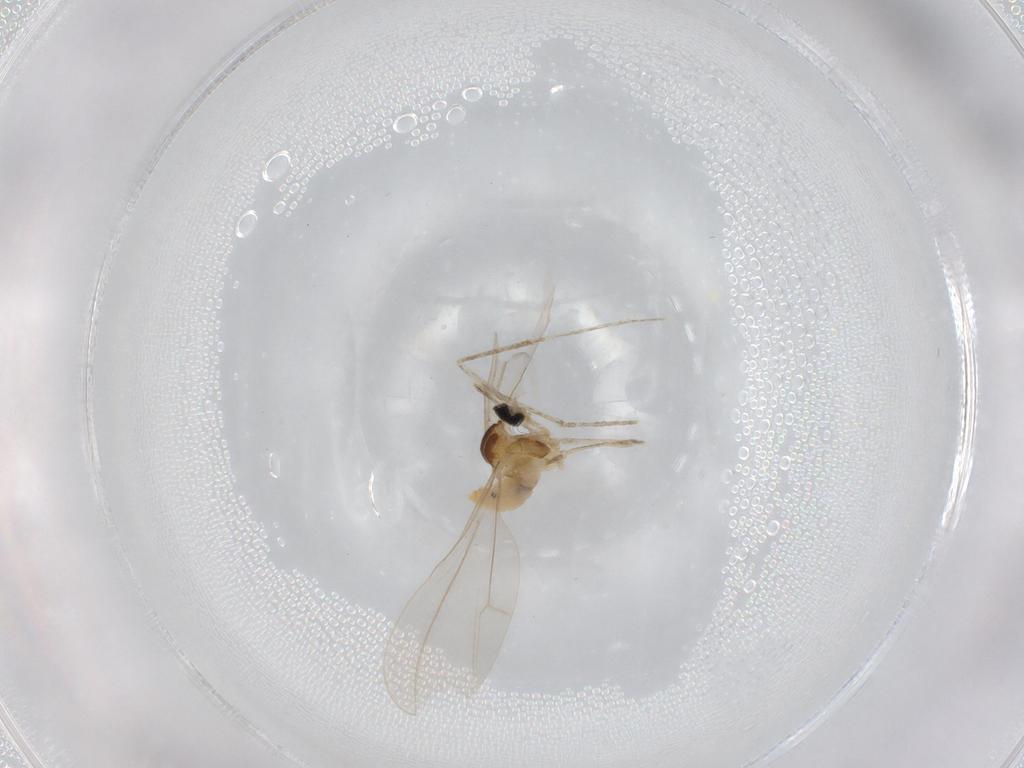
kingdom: Animalia
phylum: Arthropoda
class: Insecta
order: Diptera
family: Cecidomyiidae
